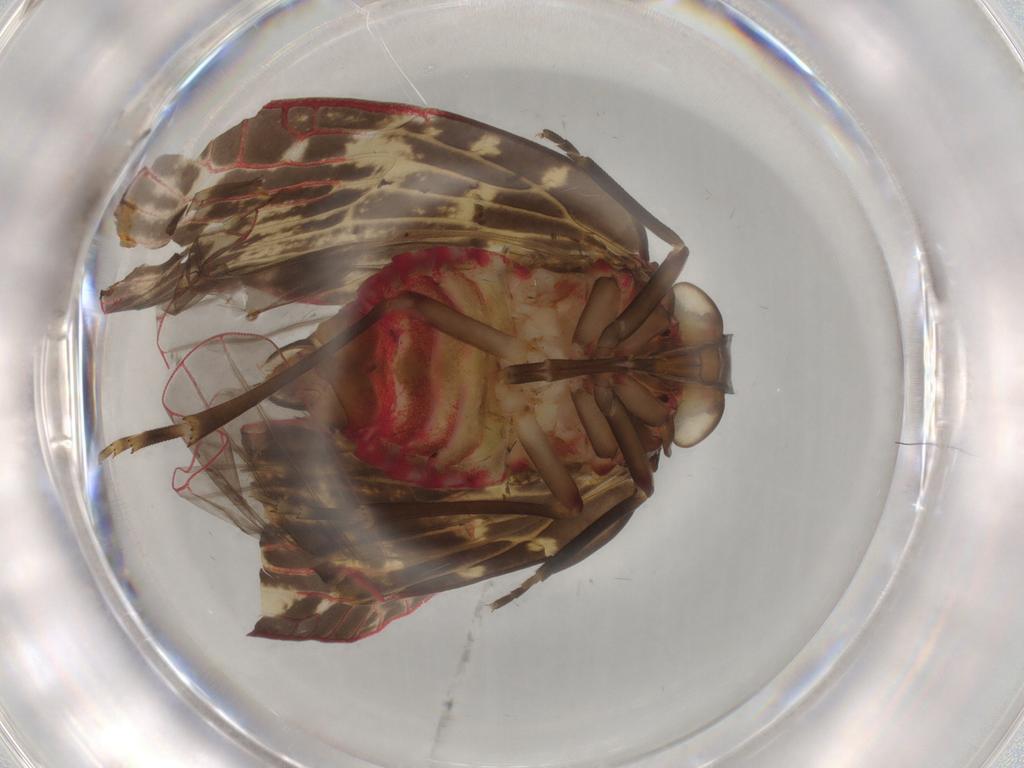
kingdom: Animalia
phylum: Arthropoda
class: Insecta
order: Hemiptera
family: Achilidae
